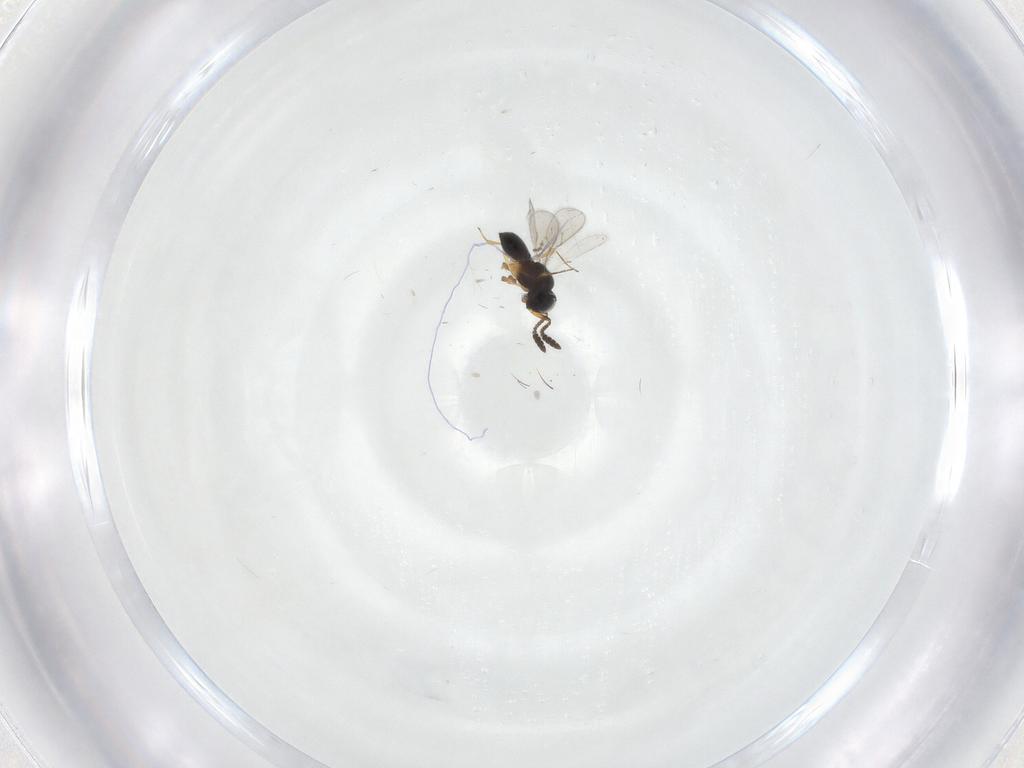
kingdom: Animalia
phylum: Arthropoda
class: Insecta
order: Hymenoptera
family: Scelionidae
